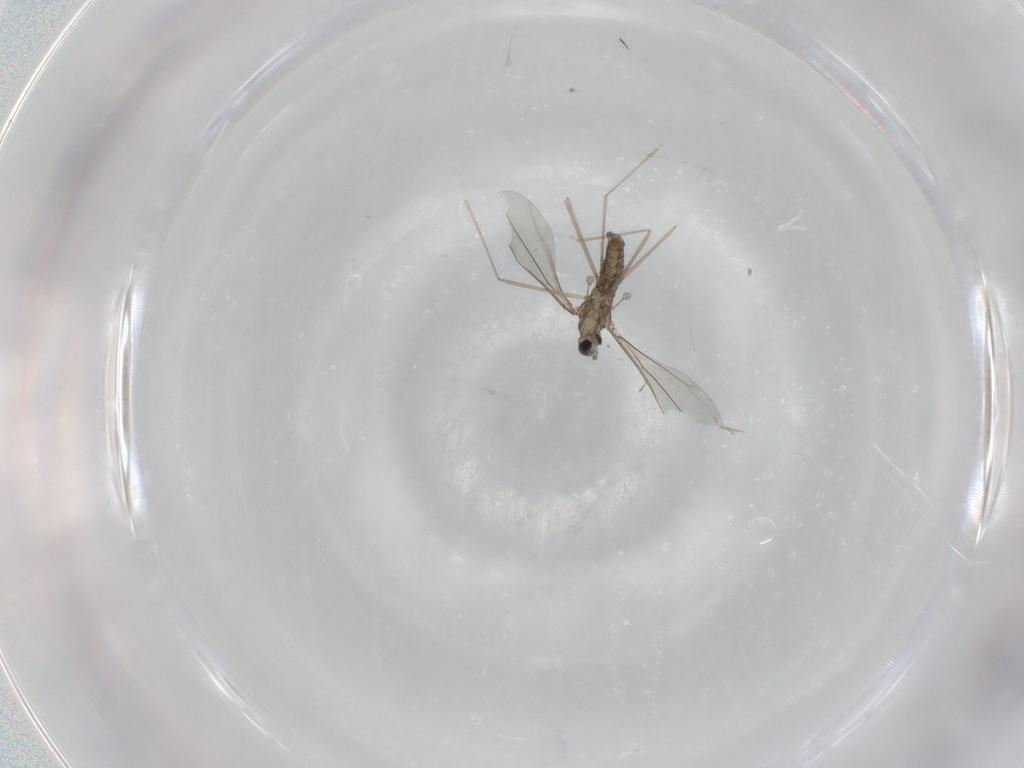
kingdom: Animalia
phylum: Arthropoda
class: Insecta
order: Diptera
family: Cecidomyiidae
